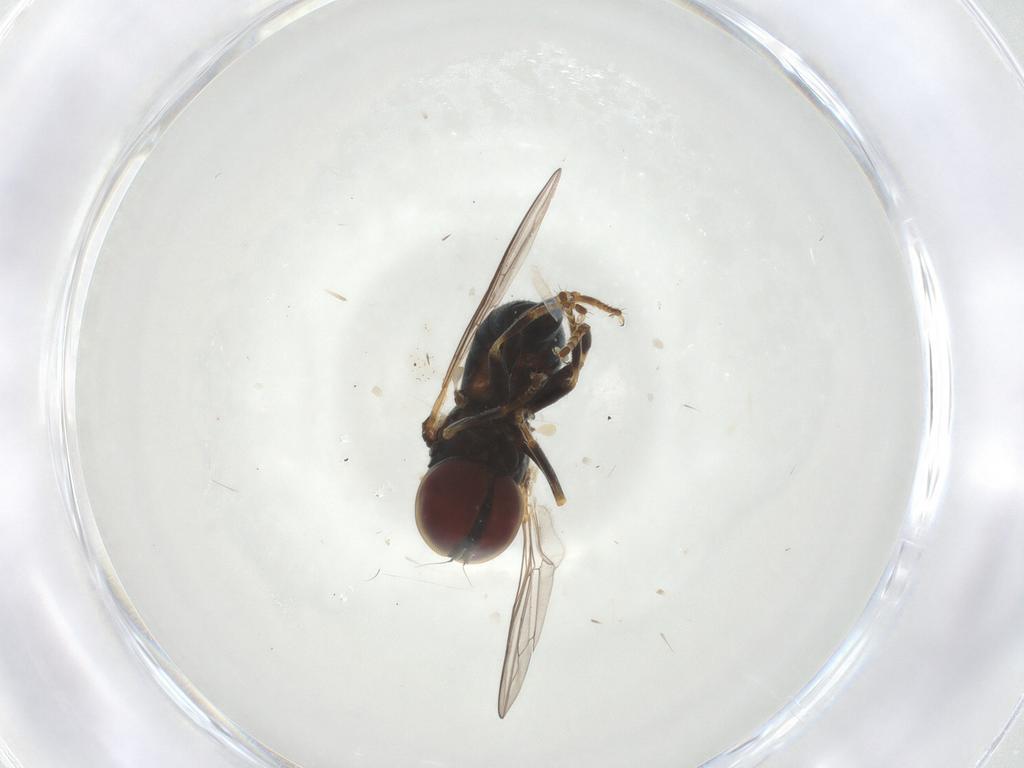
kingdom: Animalia
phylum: Arthropoda
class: Insecta
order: Diptera
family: Pipunculidae
